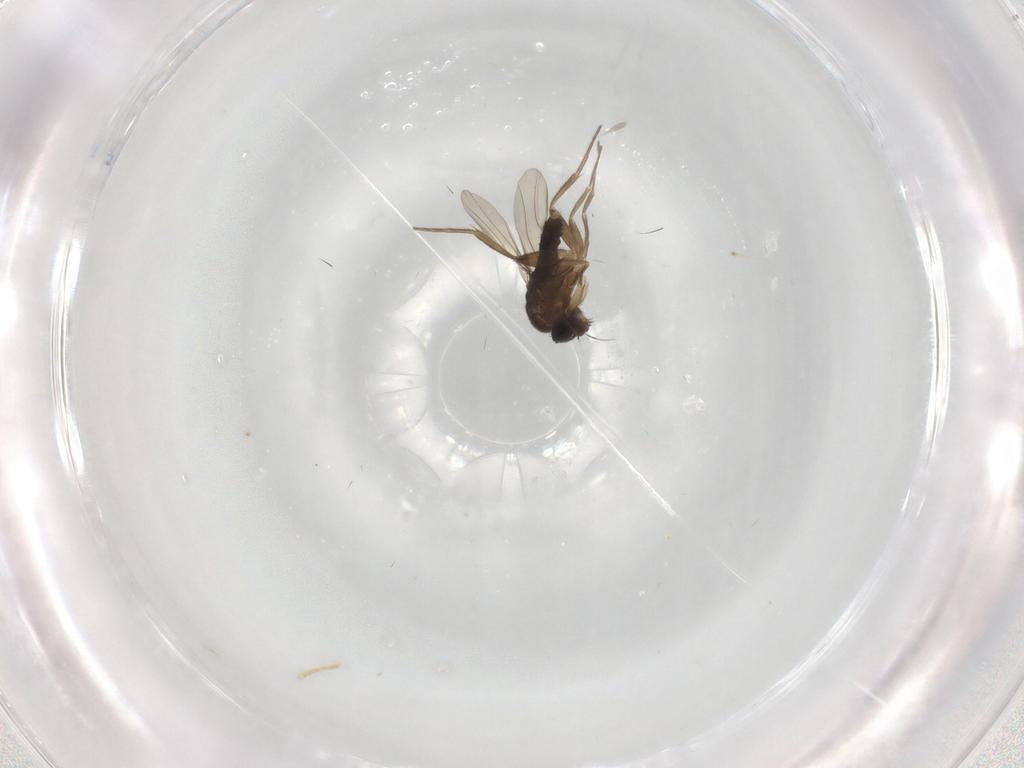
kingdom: Animalia
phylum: Arthropoda
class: Insecta
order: Diptera
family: Phoridae
